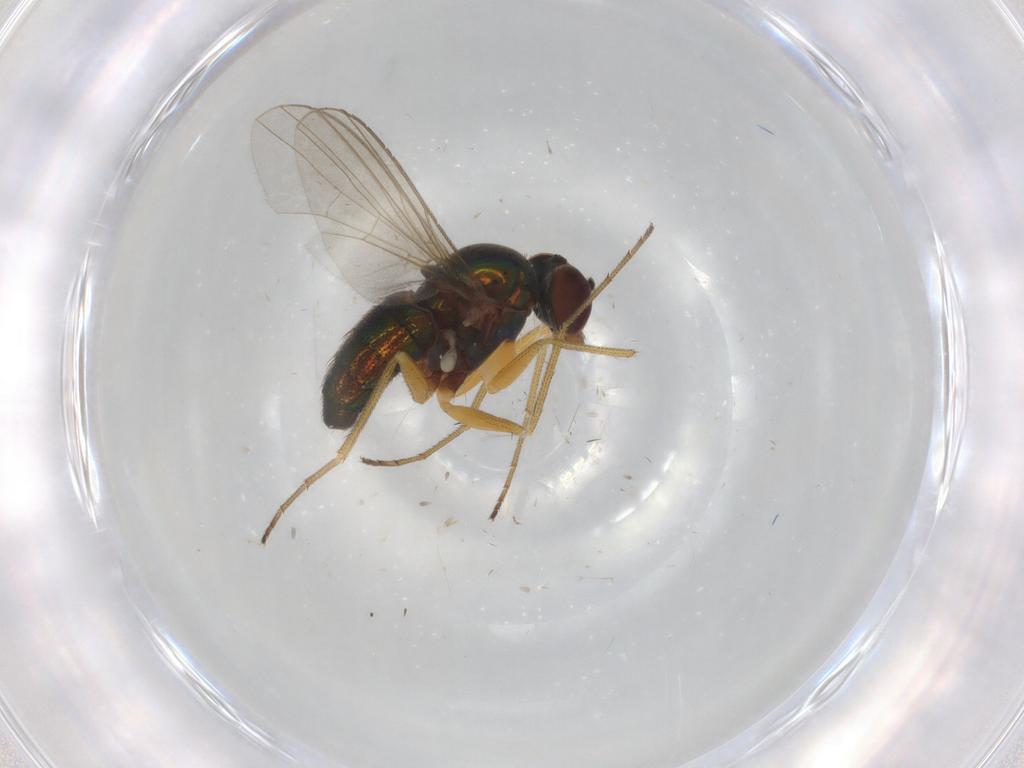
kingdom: Animalia
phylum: Arthropoda
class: Insecta
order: Diptera
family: Dolichopodidae
